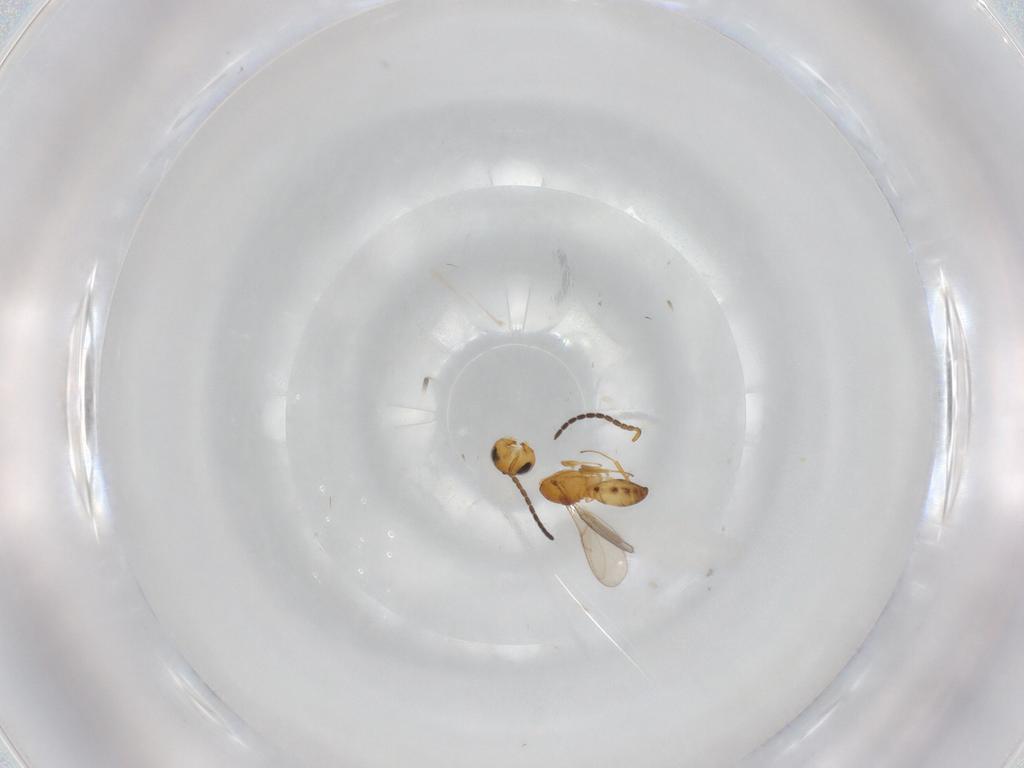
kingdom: Animalia
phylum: Arthropoda
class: Insecta
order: Hymenoptera
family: Scelionidae
